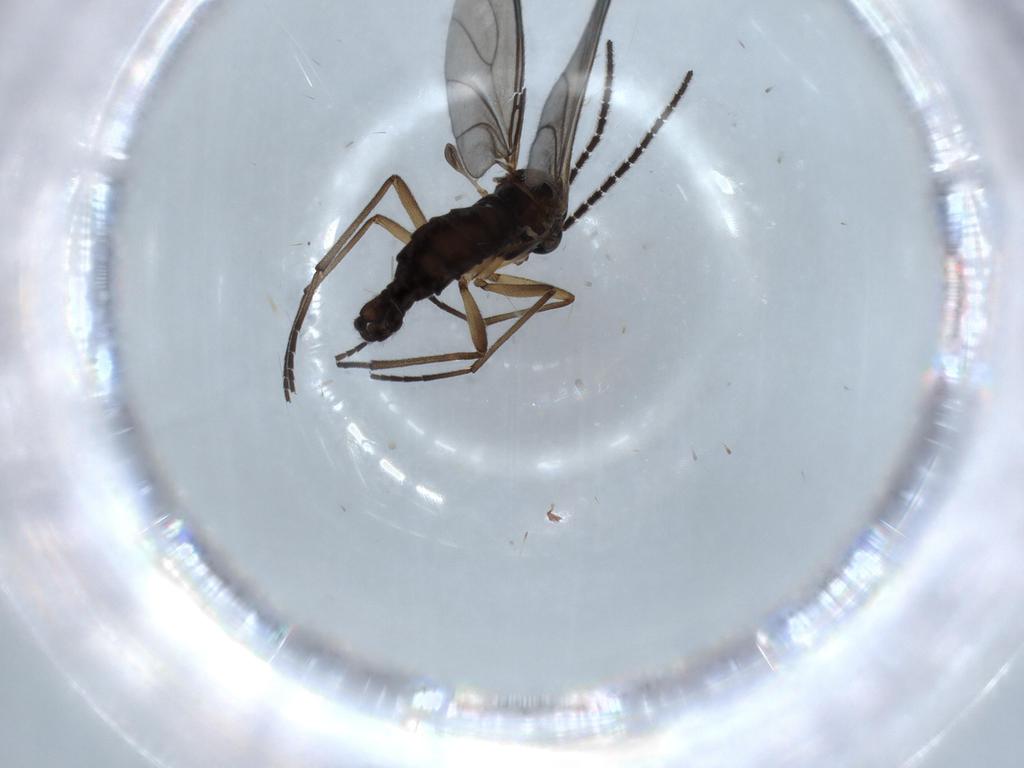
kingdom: Animalia
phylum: Arthropoda
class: Insecta
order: Diptera
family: Sciaridae
